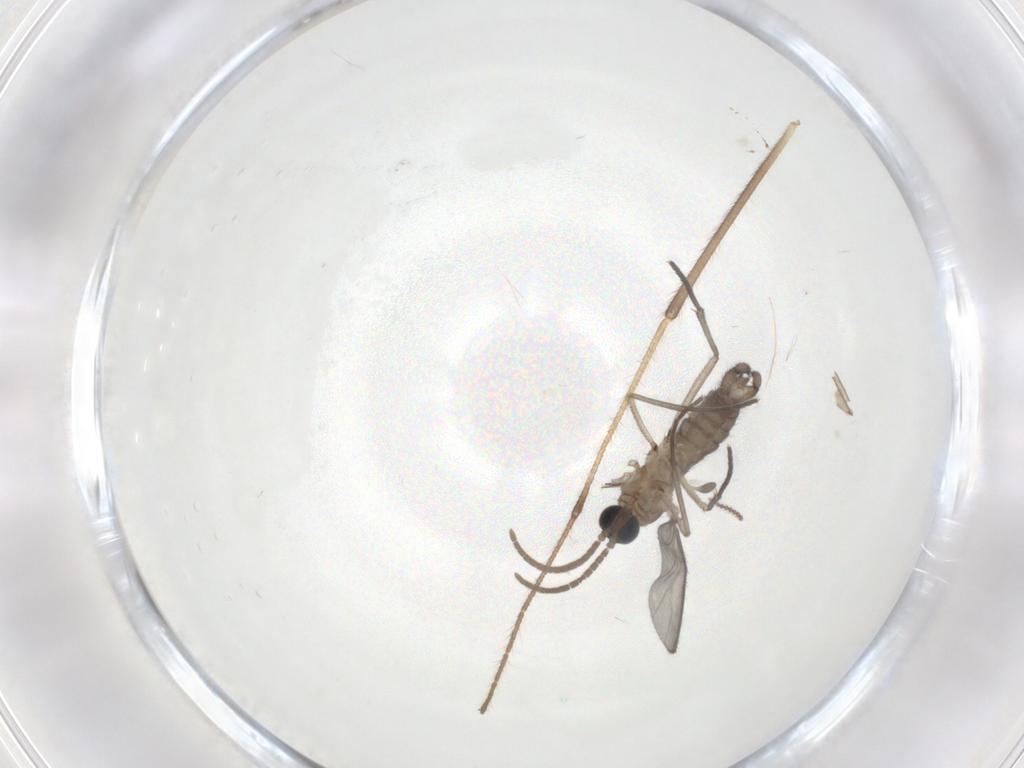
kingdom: Animalia
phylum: Arthropoda
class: Insecta
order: Diptera
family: Limoniidae
